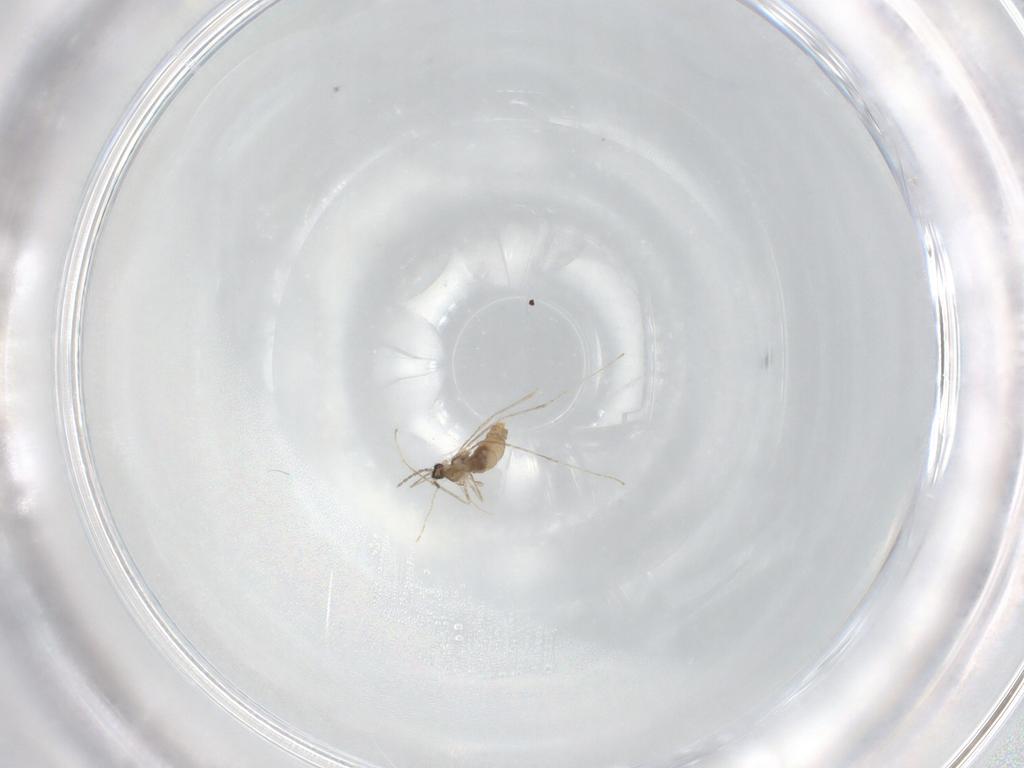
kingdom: Animalia
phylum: Arthropoda
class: Insecta
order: Diptera
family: Cecidomyiidae
